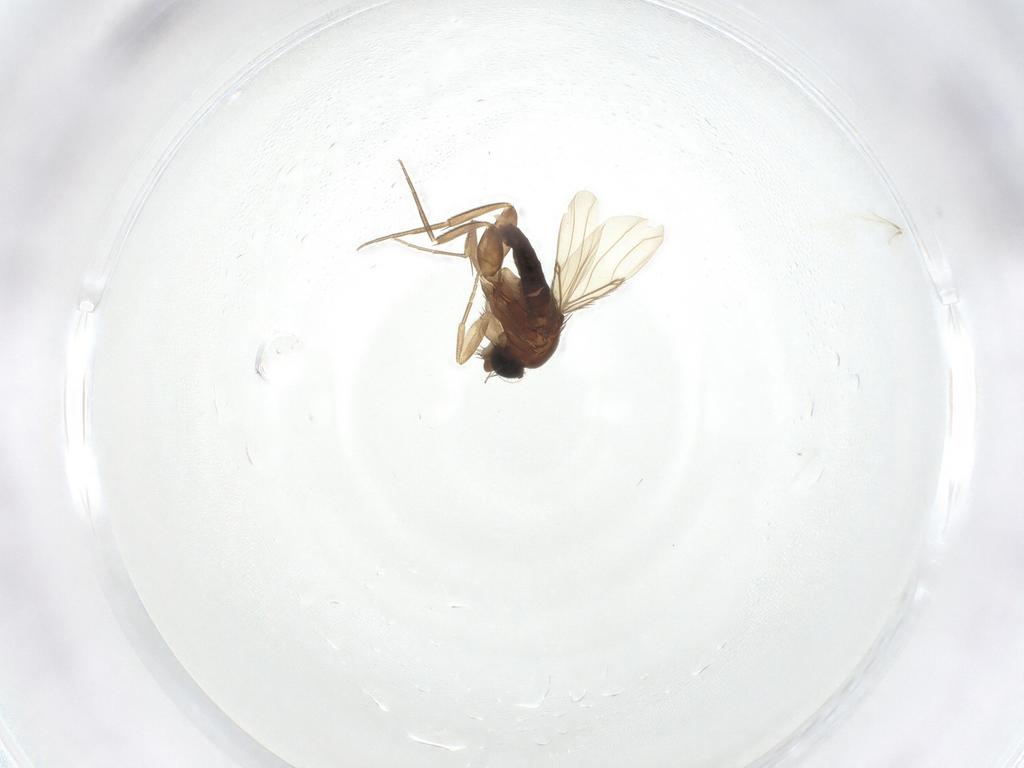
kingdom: Animalia
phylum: Arthropoda
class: Insecta
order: Diptera
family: Phoridae
